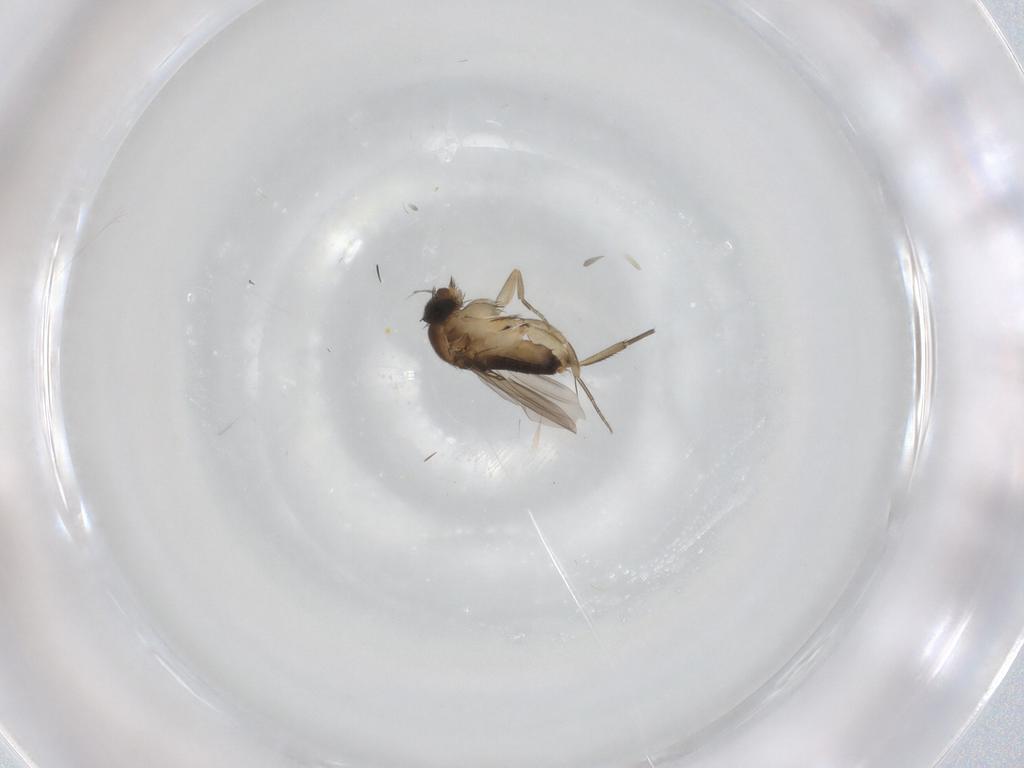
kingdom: Animalia
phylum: Arthropoda
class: Insecta
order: Diptera
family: Phoridae
